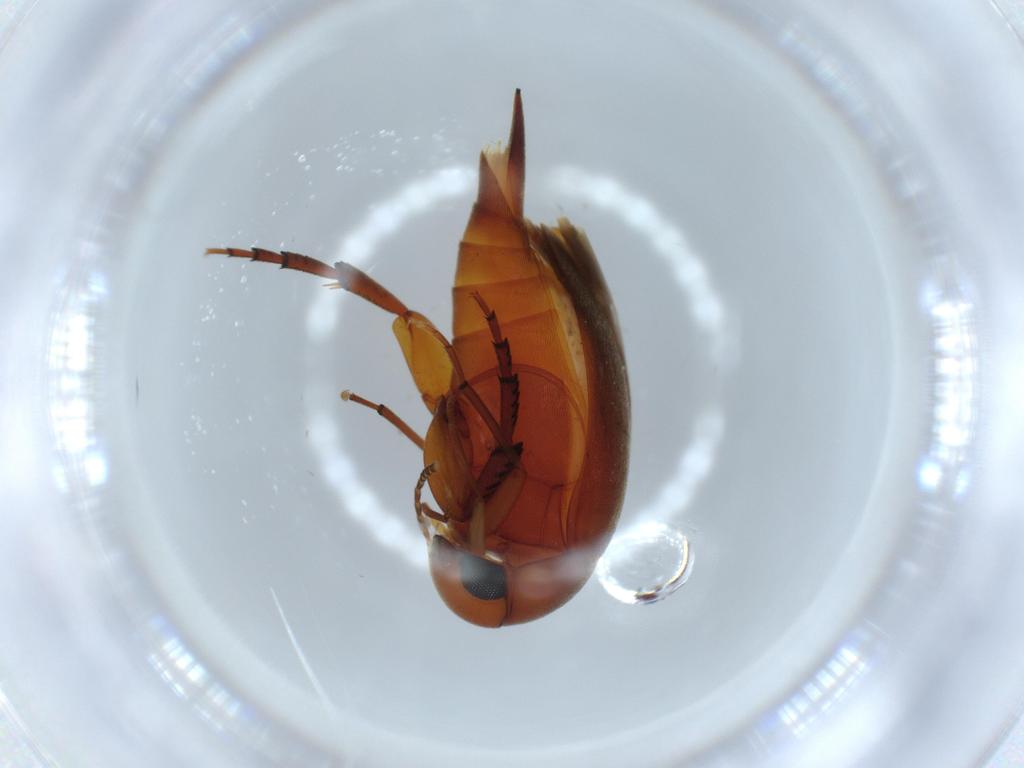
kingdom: Animalia
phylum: Arthropoda
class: Insecta
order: Coleoptera
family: Mordellidae
